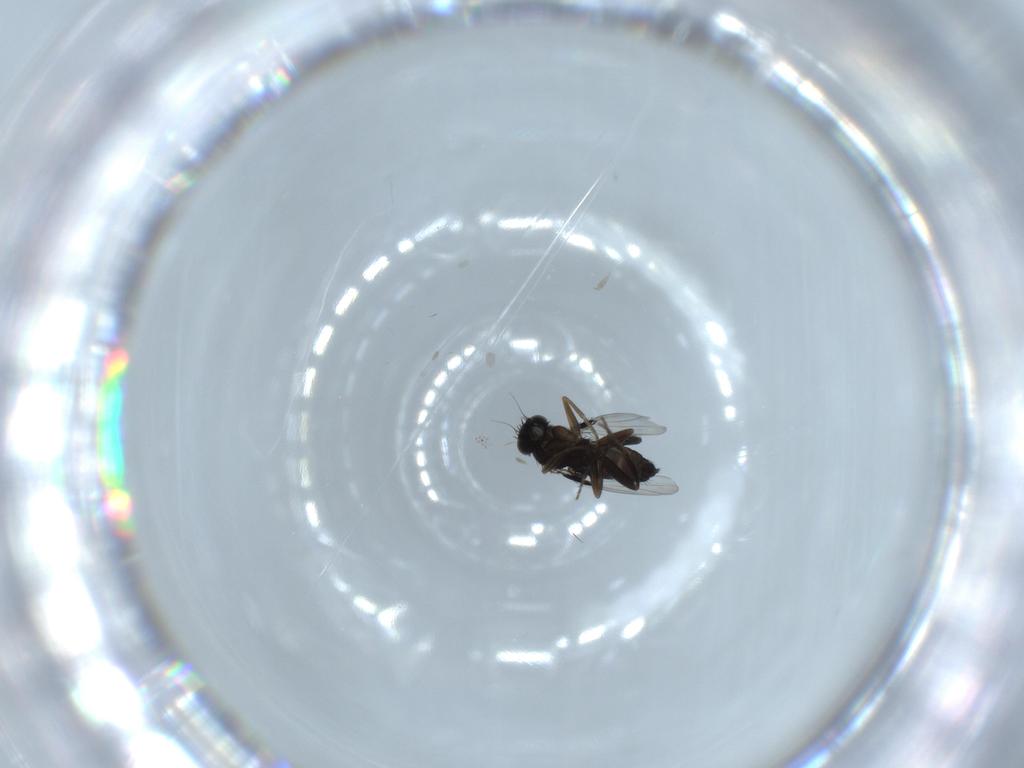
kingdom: Animalia
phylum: Arthropoda
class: Insecta
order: Diptera
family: Phoridae
